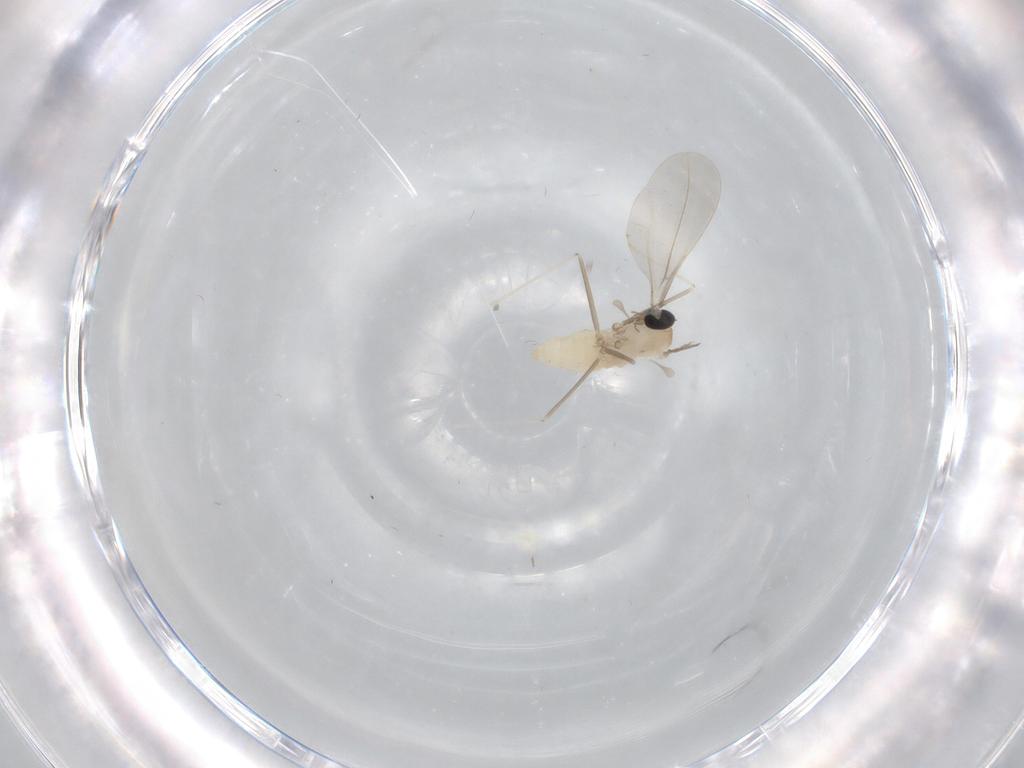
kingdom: Animalia
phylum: Arthropoda
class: Insecta
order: Diptera
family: Cecidomyiidae
